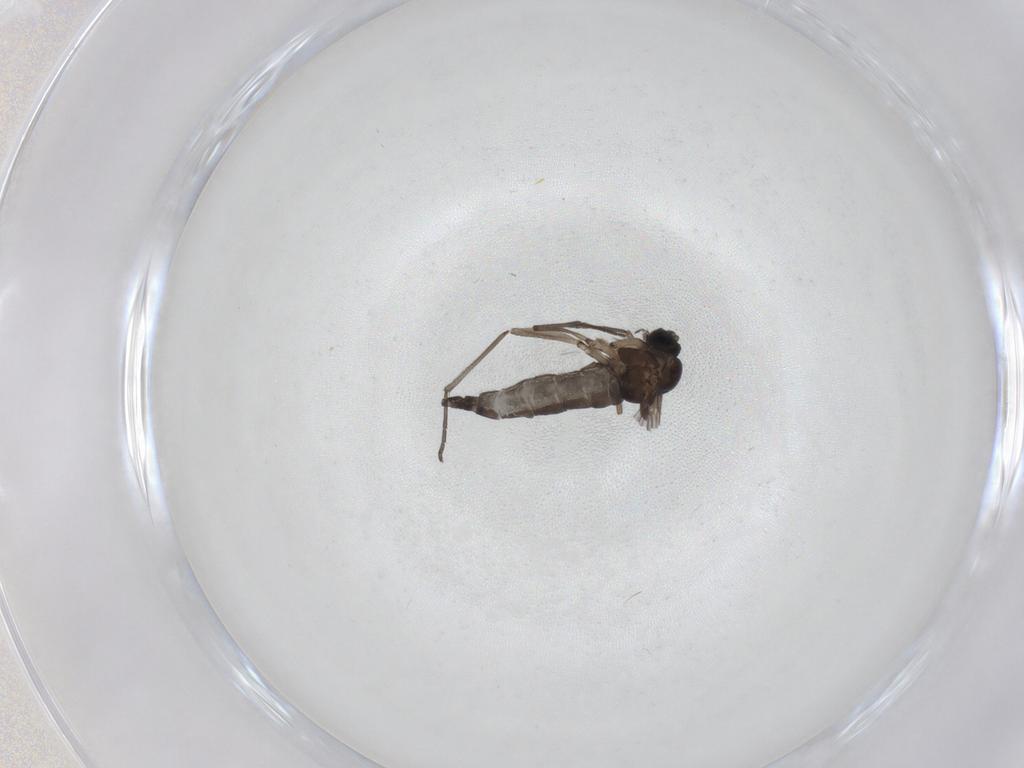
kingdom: Animalia
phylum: Arthropoda
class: Insecta
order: Diptera
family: Sciaridae
